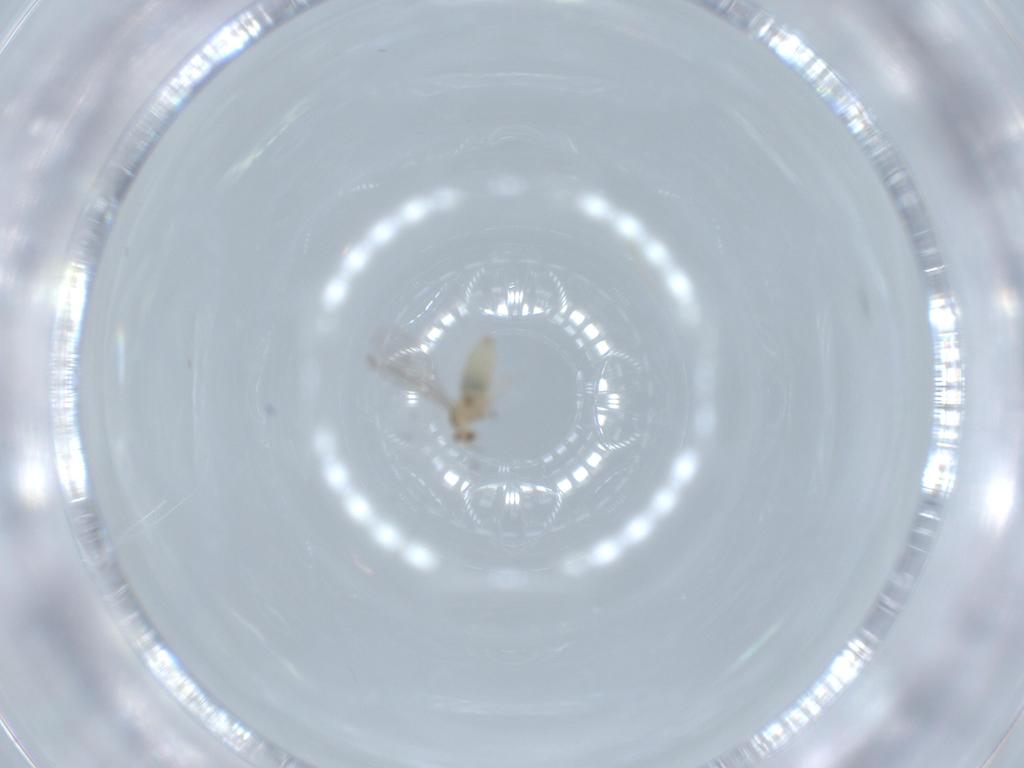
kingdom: Animalia
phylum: Arthropoda
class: Insecta
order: Diptera
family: Cecidomyiidae
